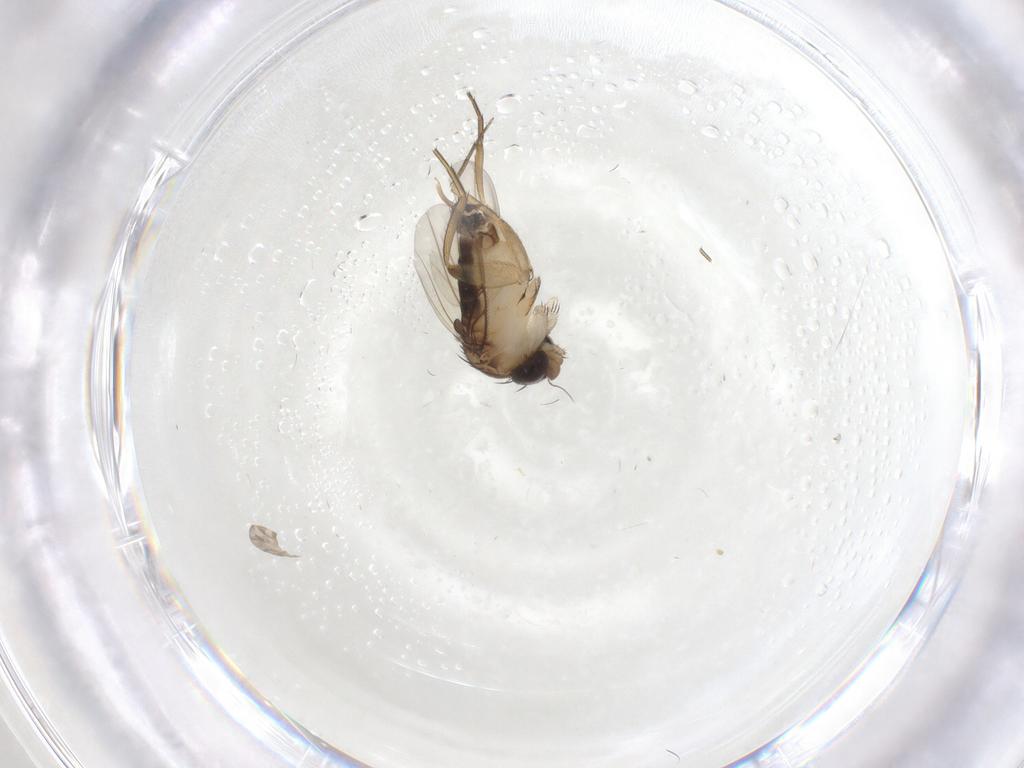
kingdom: Animalia
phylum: Arthropoda
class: Insecta
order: Diptera
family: Phoridae
